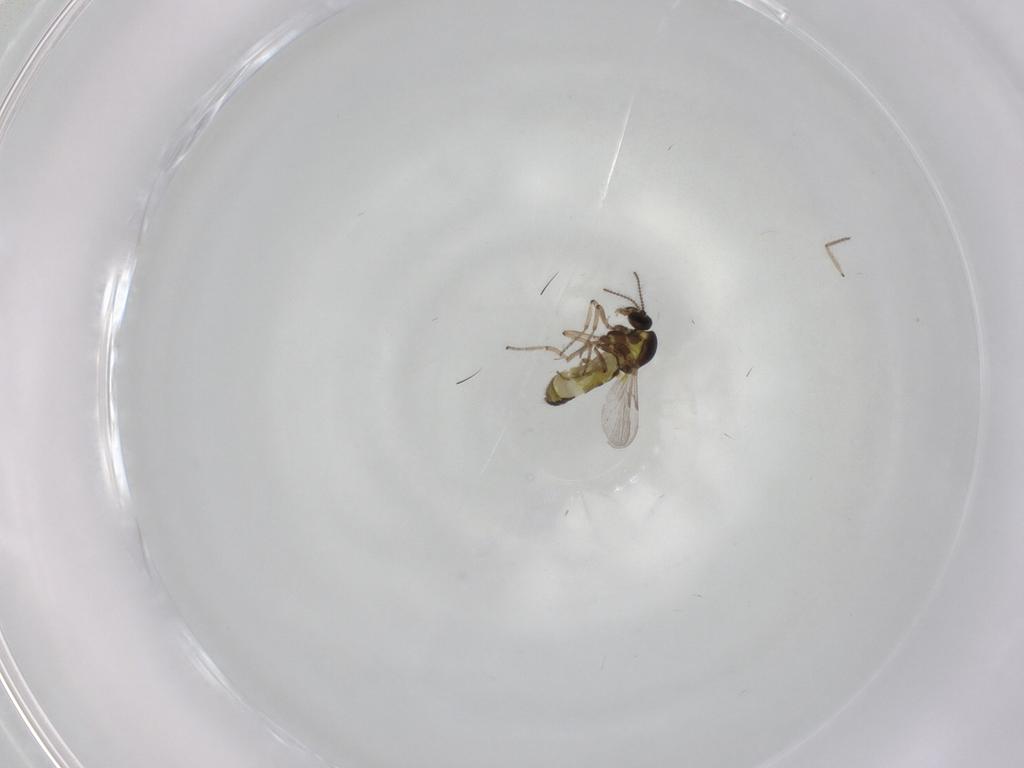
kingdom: Animalia
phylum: Arthropoda
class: Insecta
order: Diptera
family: Ceratopogonidae
